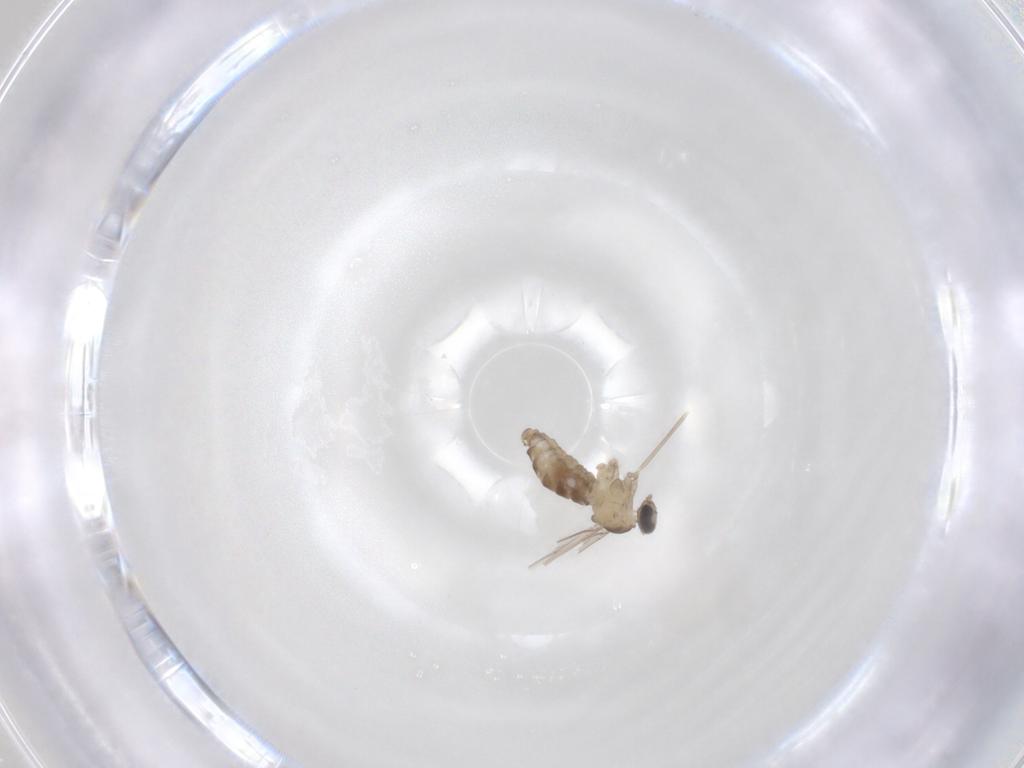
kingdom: Animalia
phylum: Arthropoda
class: Insecta
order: Diptera
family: Cecidomyiidae
